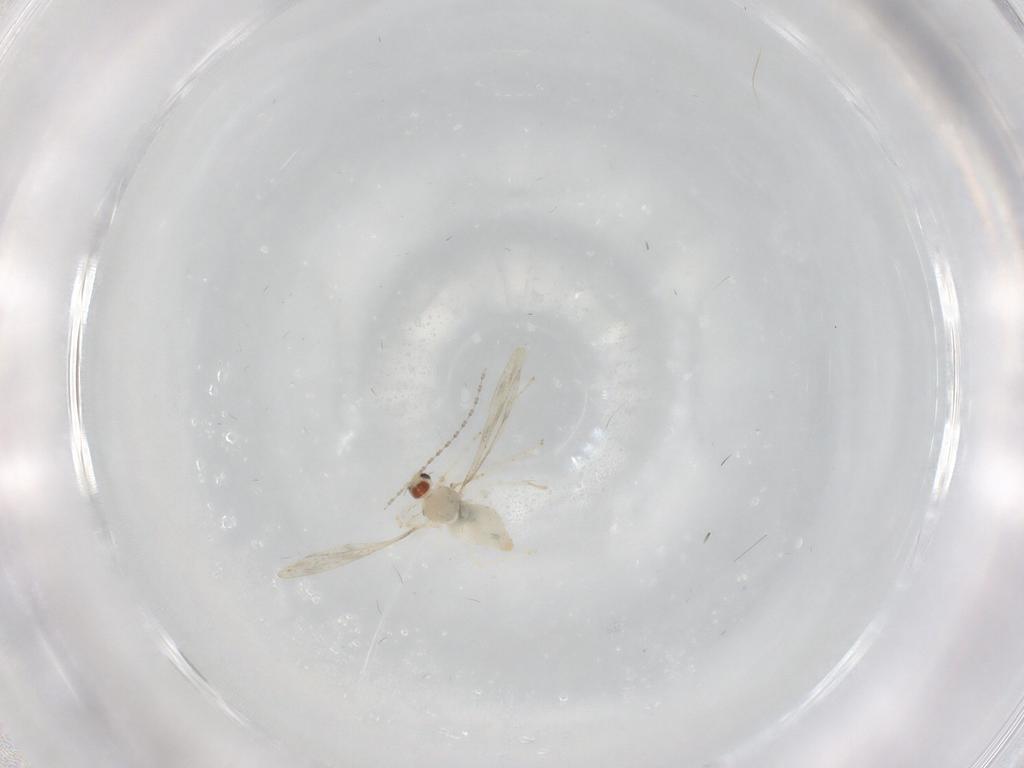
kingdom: Animalia
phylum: Arthropoda
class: Insecta
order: Diptera
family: Cecidomyiidae
